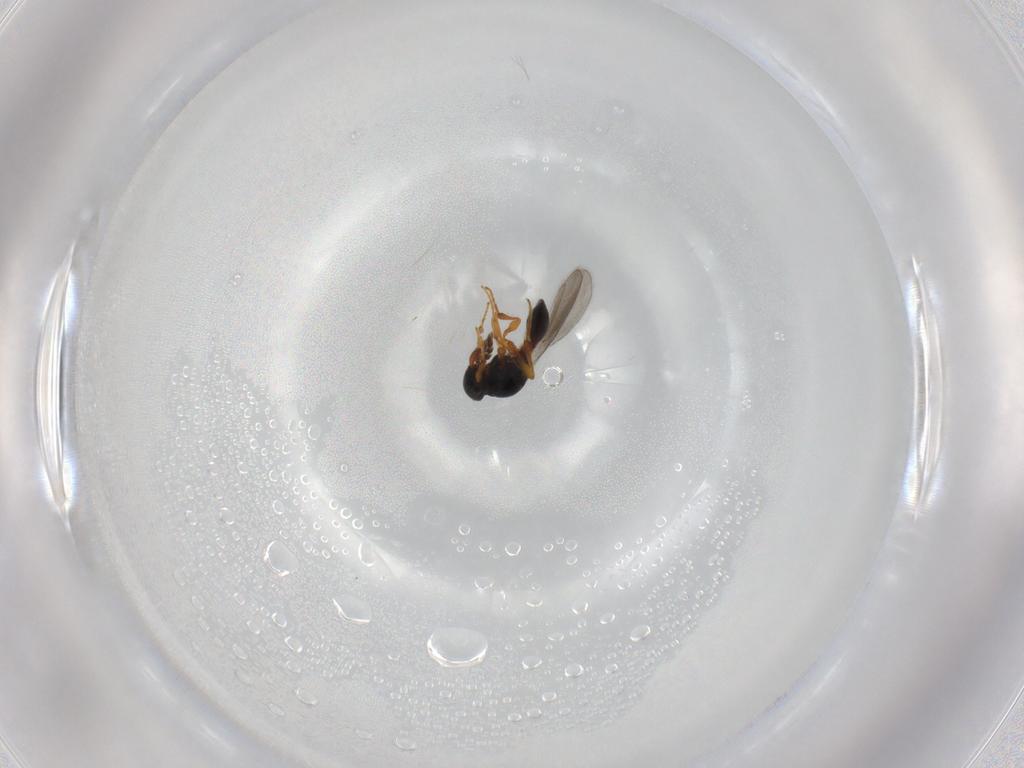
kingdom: Animalia
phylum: Arthropoda
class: Insecta
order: Hymenoptera
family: Platygastridae
